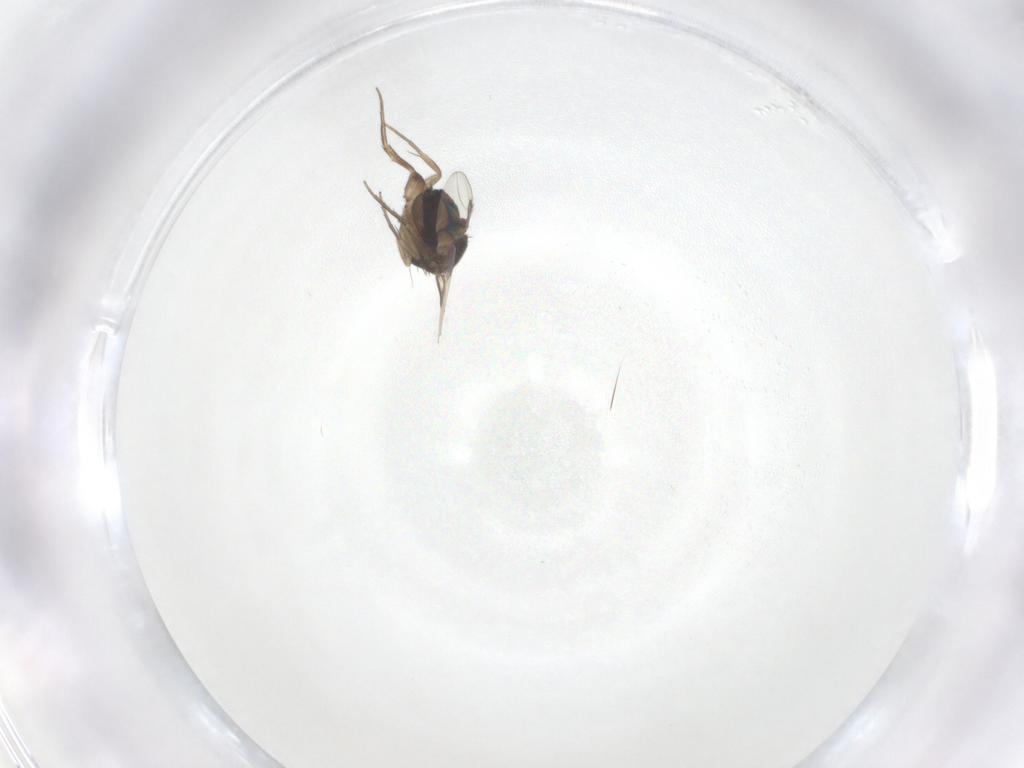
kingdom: Animalia
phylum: Arthropoda
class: Insecta
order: Diptera
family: Phoridae
